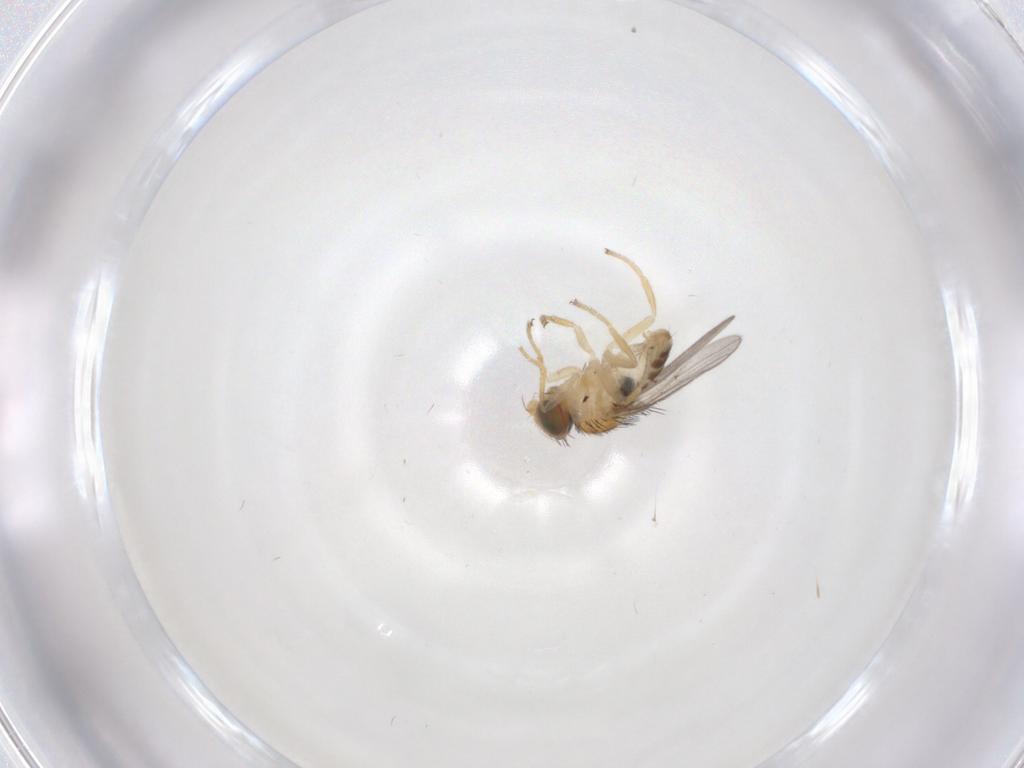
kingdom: Animalia
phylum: Arthropoda
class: Insecta
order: Diptera
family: Chloropidae
